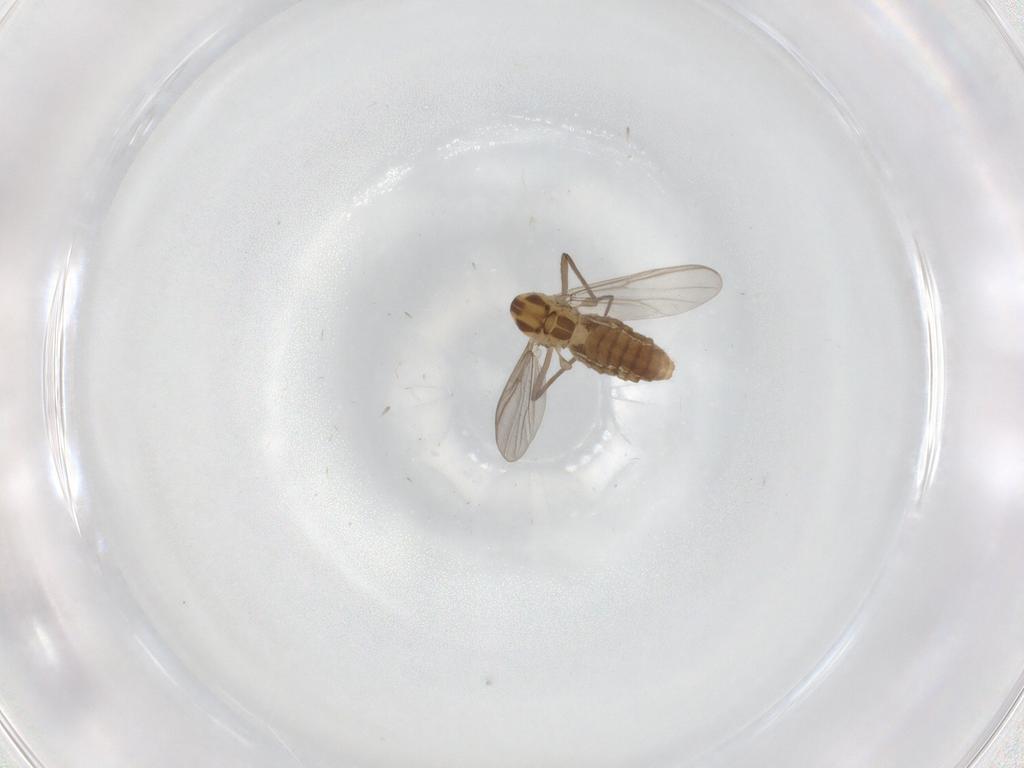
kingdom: Animalia
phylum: Arthropoda
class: Insecta
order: Diptera
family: Chironomidae
